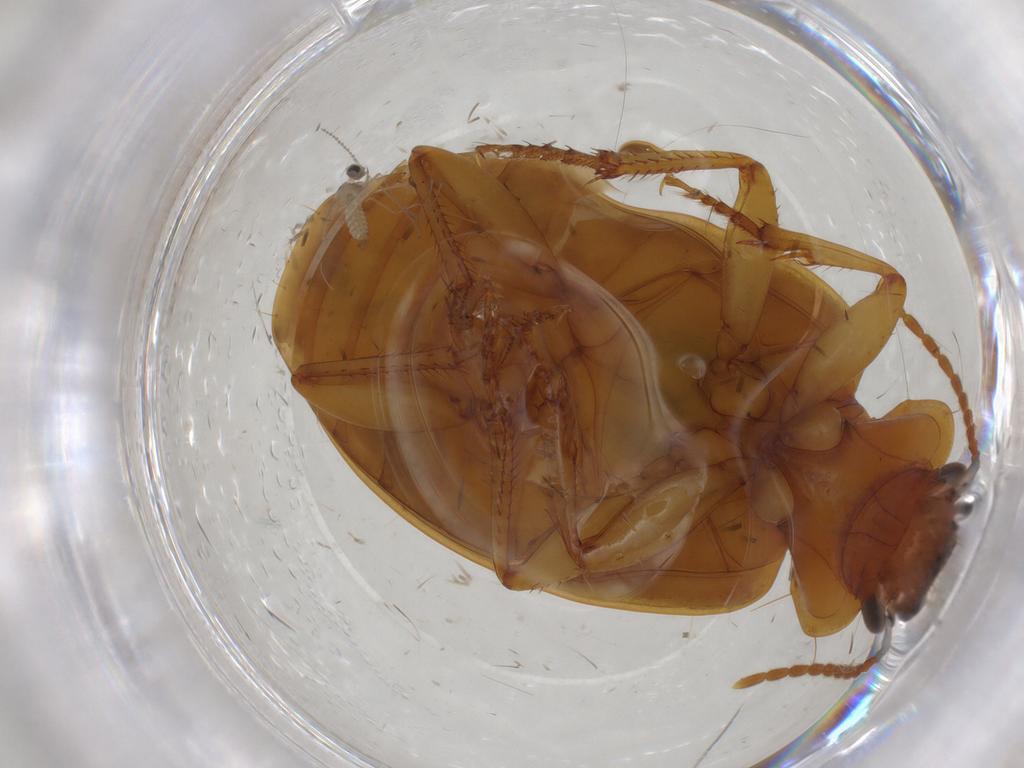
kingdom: Animalia
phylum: Arthropoda
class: Insecta
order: Coleoptera
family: Carabidae
